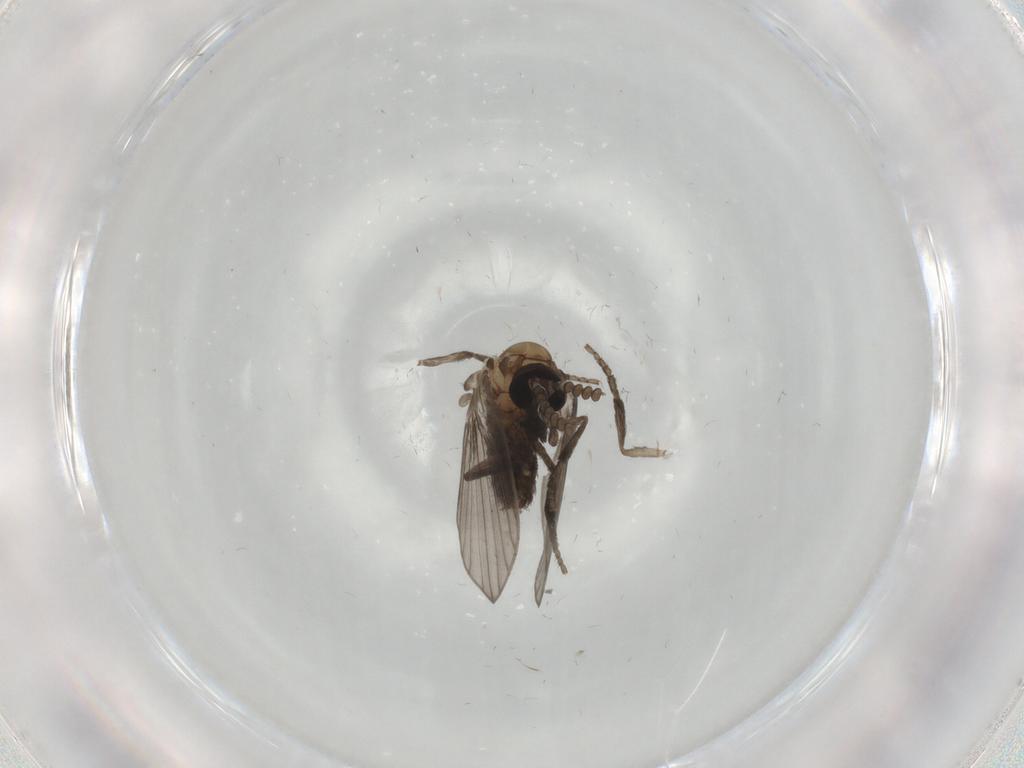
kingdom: Animalia
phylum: Arthropoda
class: Insecta
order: Diptera
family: Psychodidae
